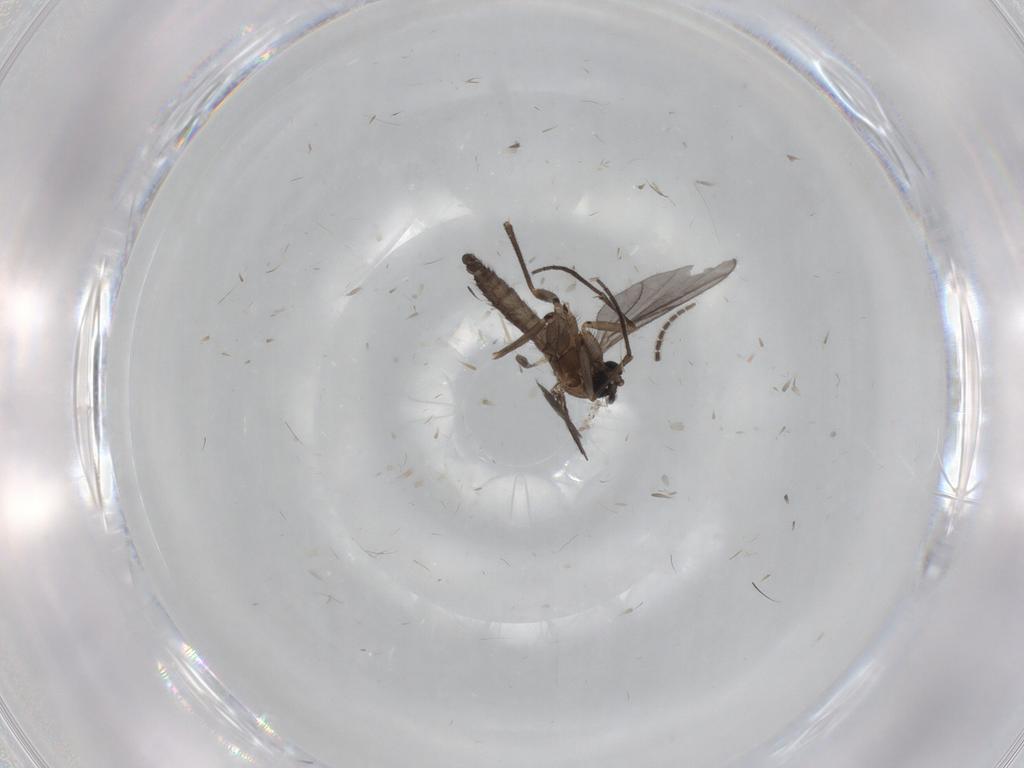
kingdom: Animalia
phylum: Arthropoda
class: Insecta
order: Diptera
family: Sciaridae
